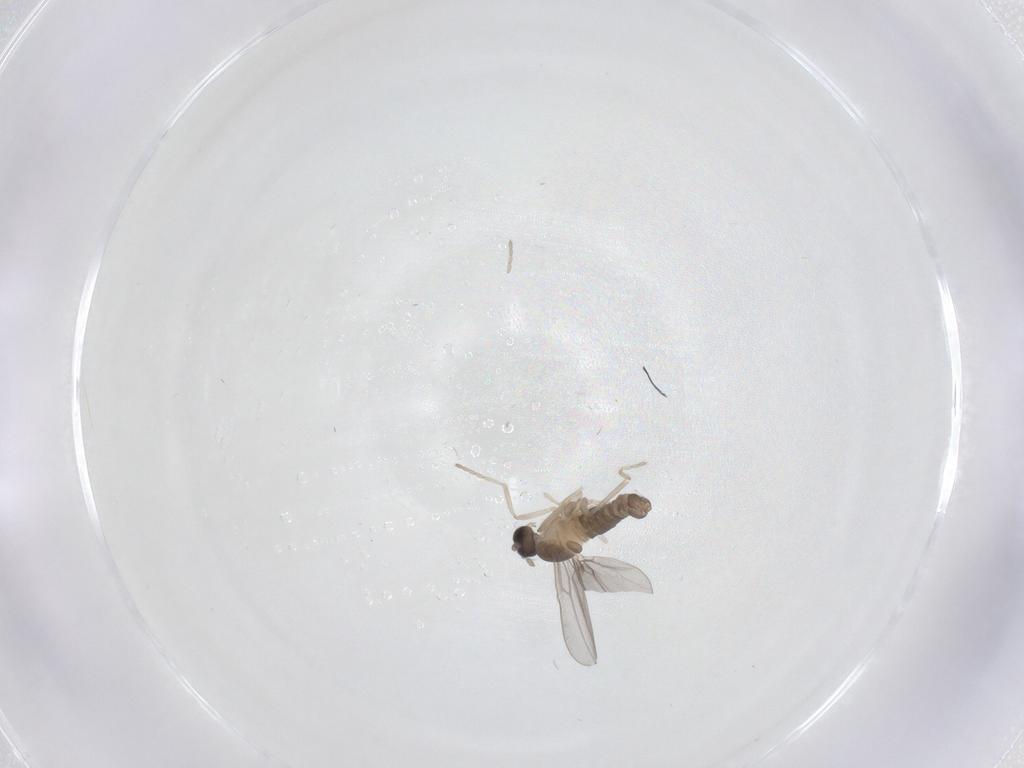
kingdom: Animalia
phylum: Arthropoda
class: Insecta
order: Diptera
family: Cecidomyiidae
